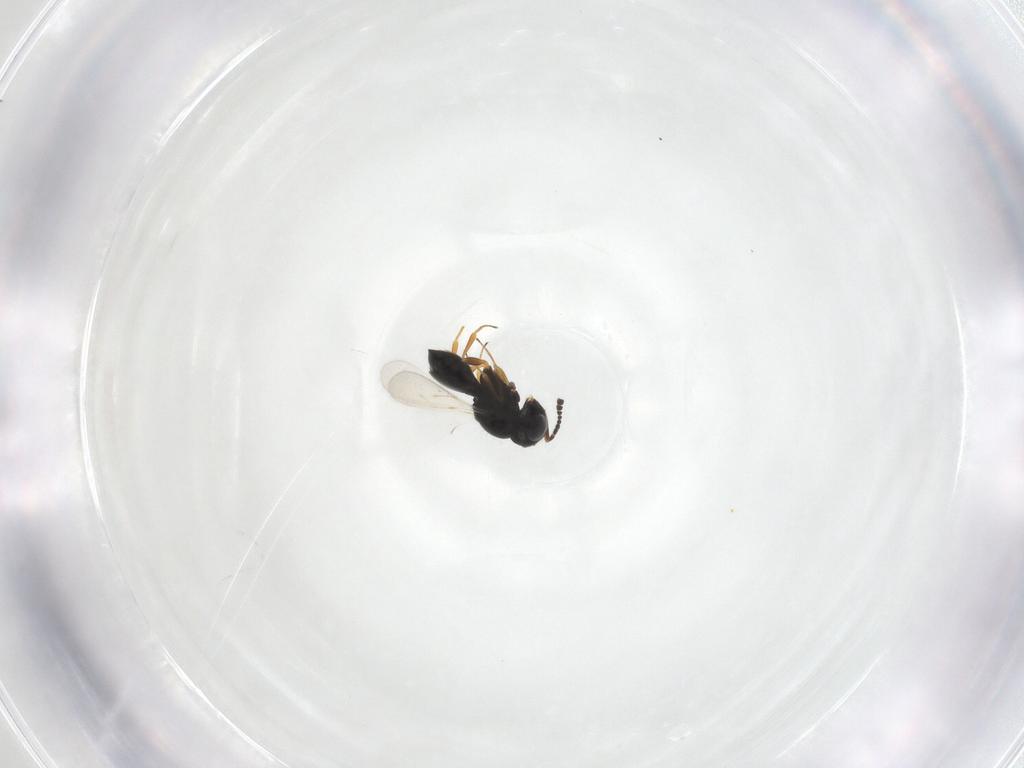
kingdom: Animalia
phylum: Arthropoda
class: Insecta
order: Hymenoptera
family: Scelionidae
